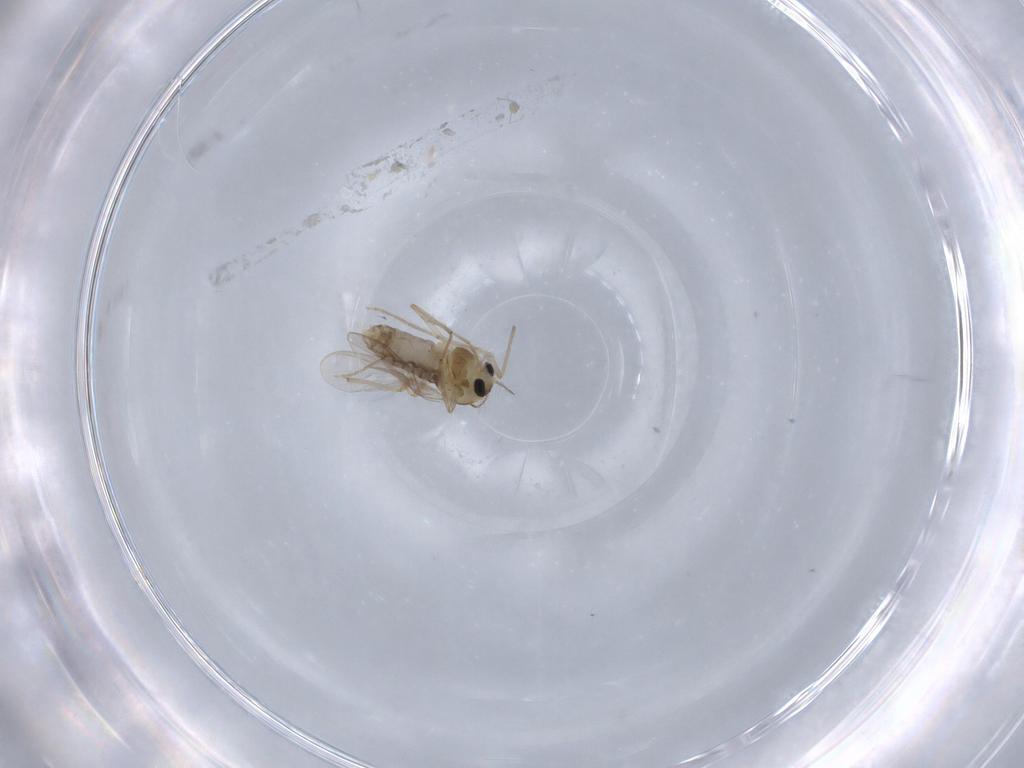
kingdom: Animalia
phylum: Arthropoda
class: Insecta
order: Diptera
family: Chironomidae
